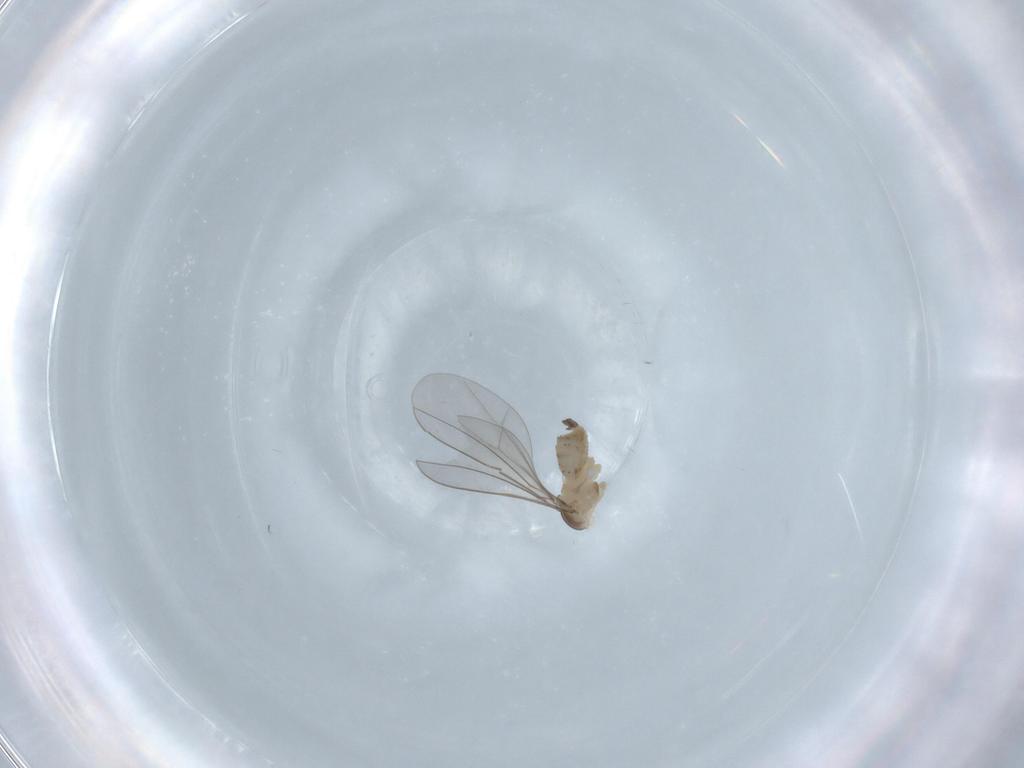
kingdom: Animalia
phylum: Arthropoda
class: Insecta
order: Diptera
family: Cecidomyiidae
